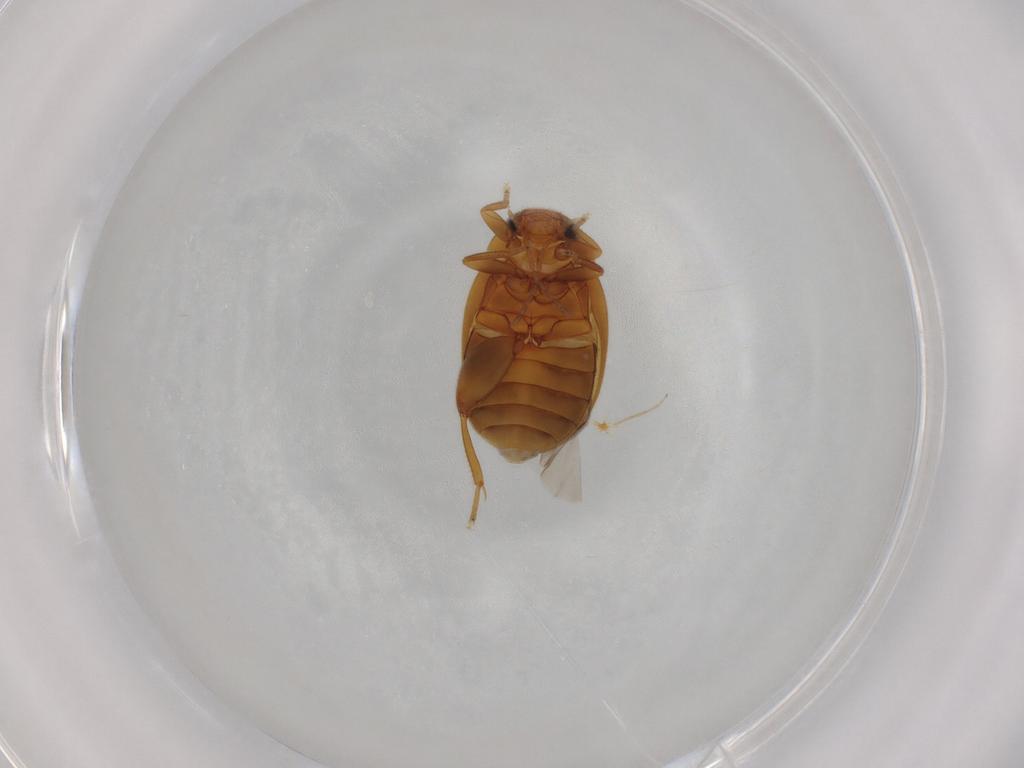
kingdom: Animalia
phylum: Arthropoda
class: Insecta
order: Coleoptera
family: Scirtidae
